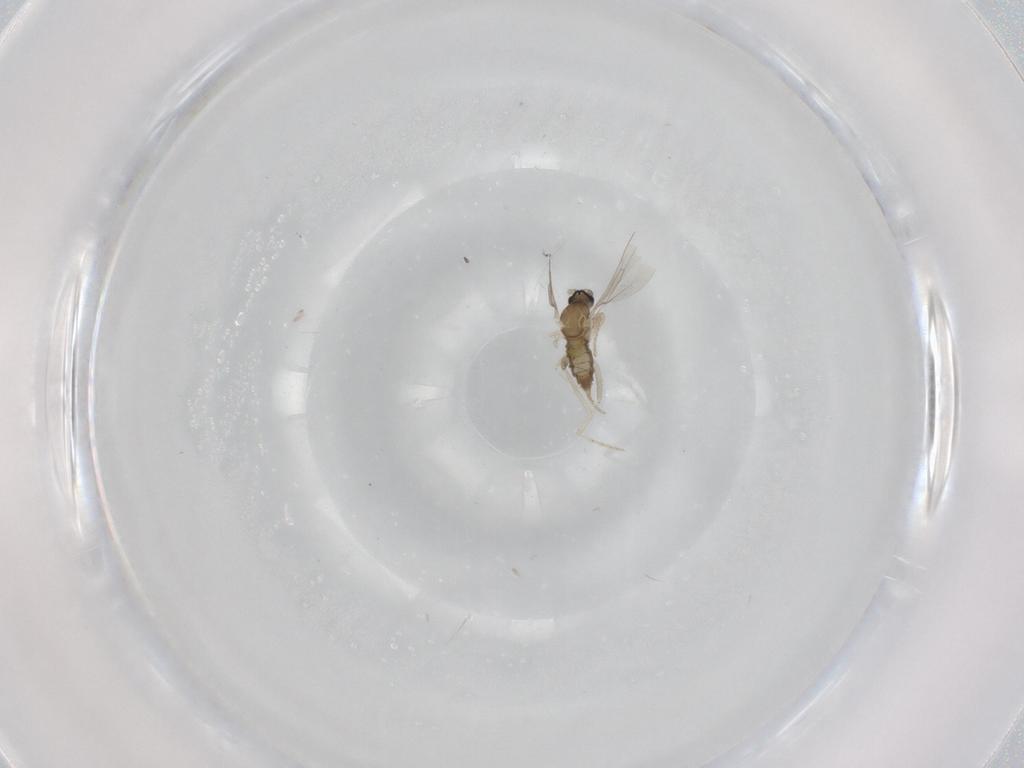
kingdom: Animalia
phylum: Arthropoda
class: Insecta
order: Diptera
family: Cecidomyiidae
